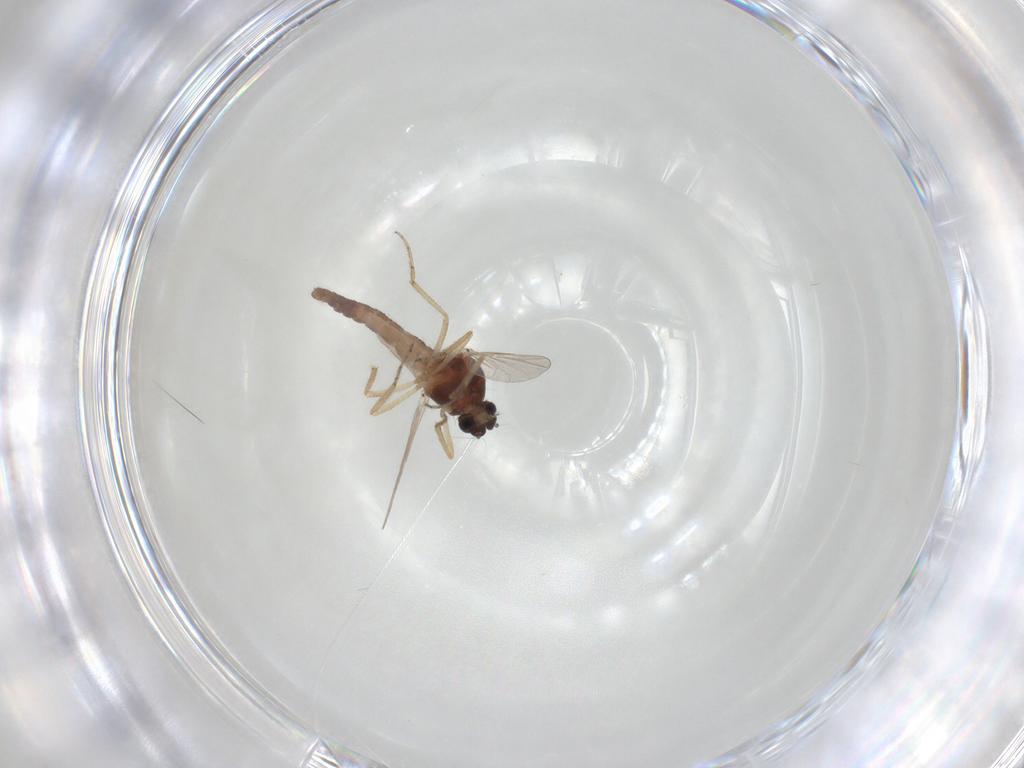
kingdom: Animalia
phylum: Arthropoda
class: Insecta
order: Diptera
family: Ceratopogonidae
